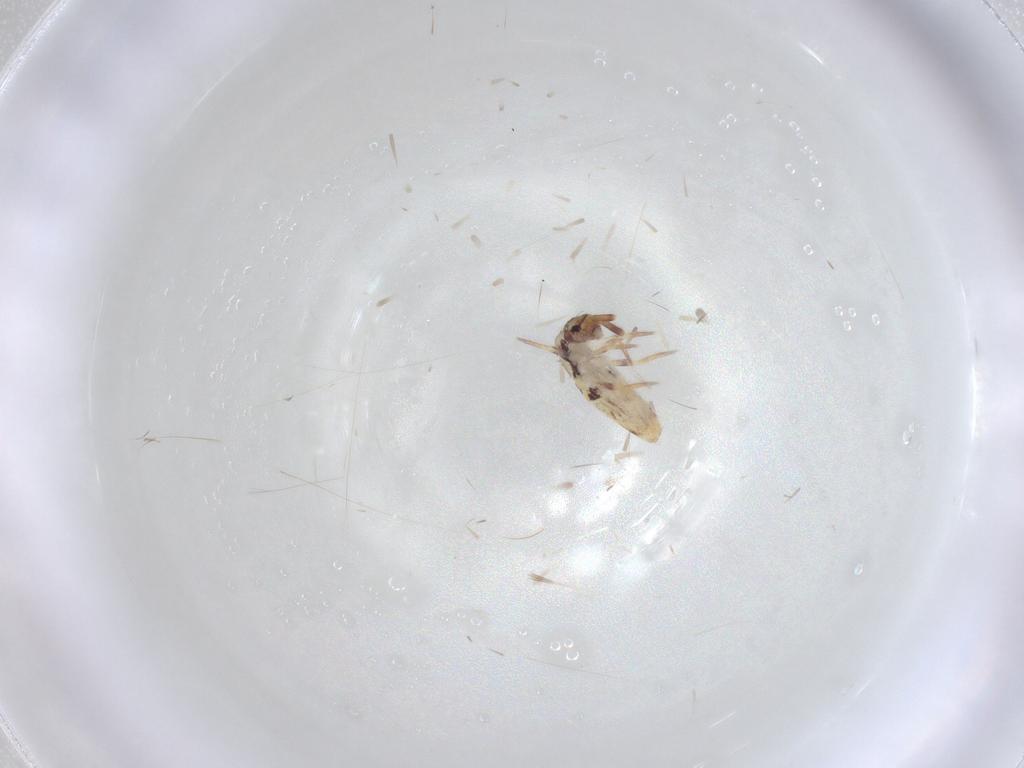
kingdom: Animalia
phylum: Arthropoda
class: Collembola
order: Entomobryomorpha
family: Entomobryidae
